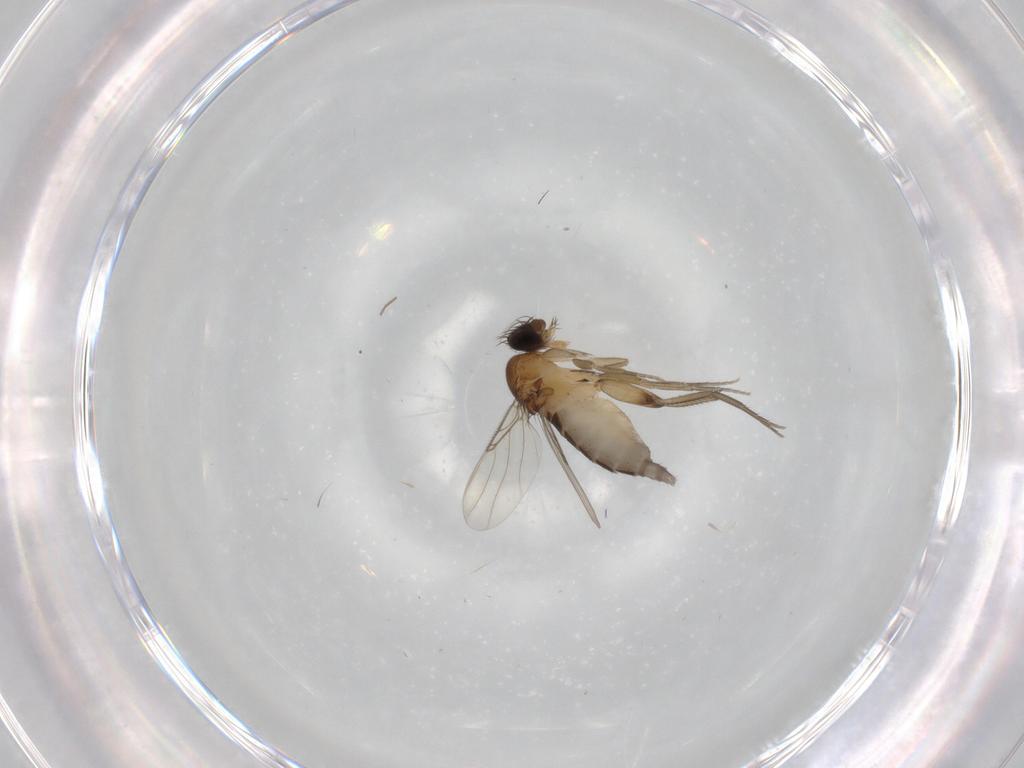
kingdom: Animalia
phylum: Arthropoda
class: Insecta
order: Diptera
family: Phoridae
